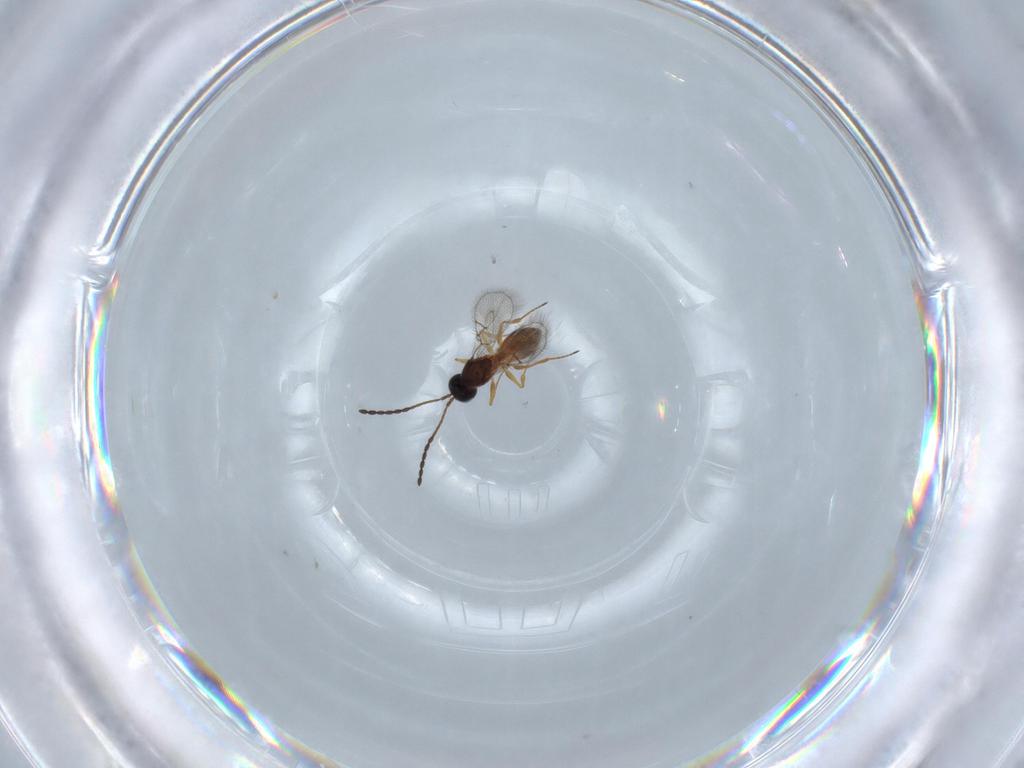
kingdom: Animalia
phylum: Arthropoda
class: Insecta
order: Hymenoptera
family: Figitidae
